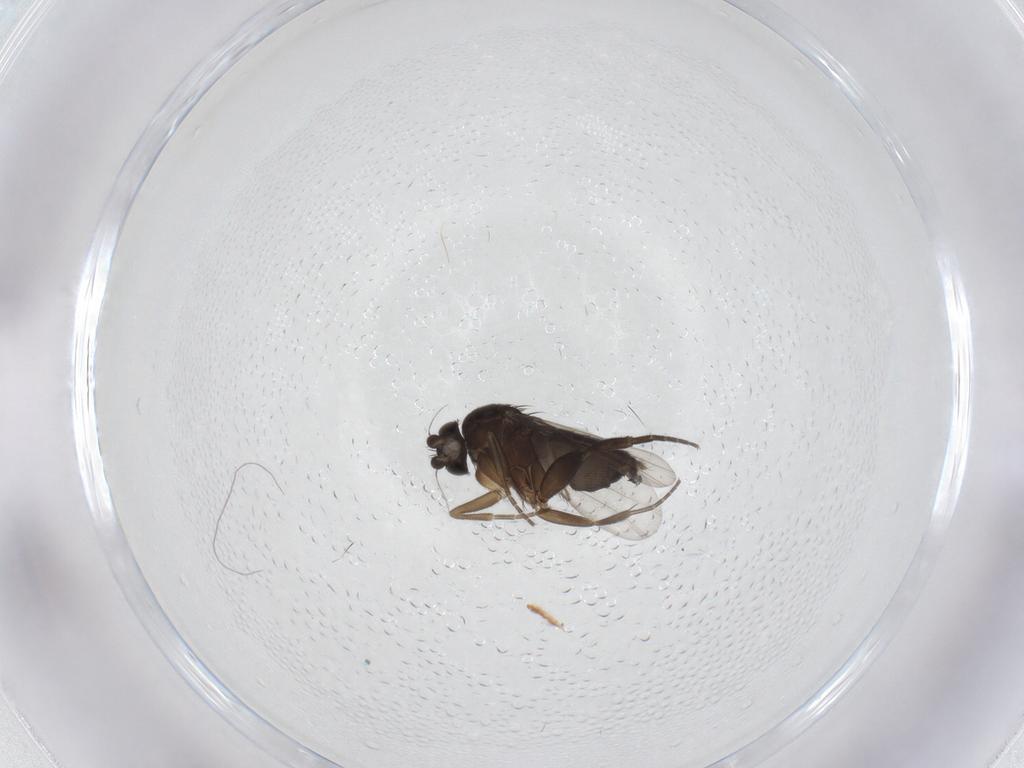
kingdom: Animalia
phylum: Arthropoda
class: Insecta
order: Diptera
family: Phoridae
